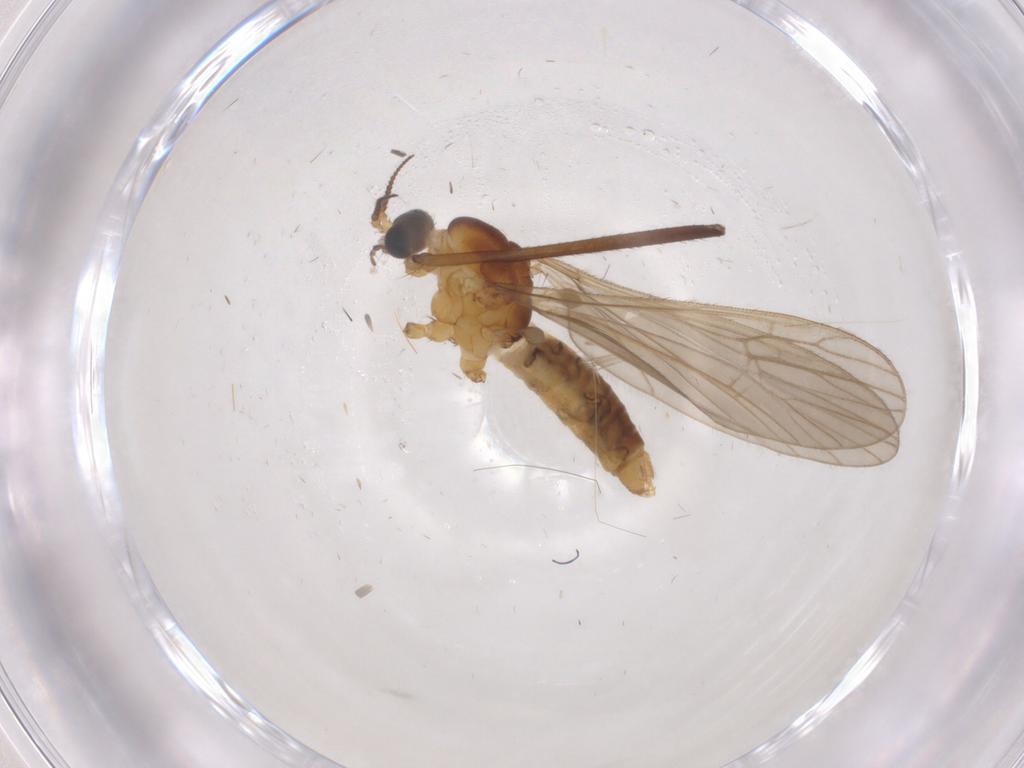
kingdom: Animalia
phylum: Arthropoda
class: Insecta
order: Diptera
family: Limoniidae
